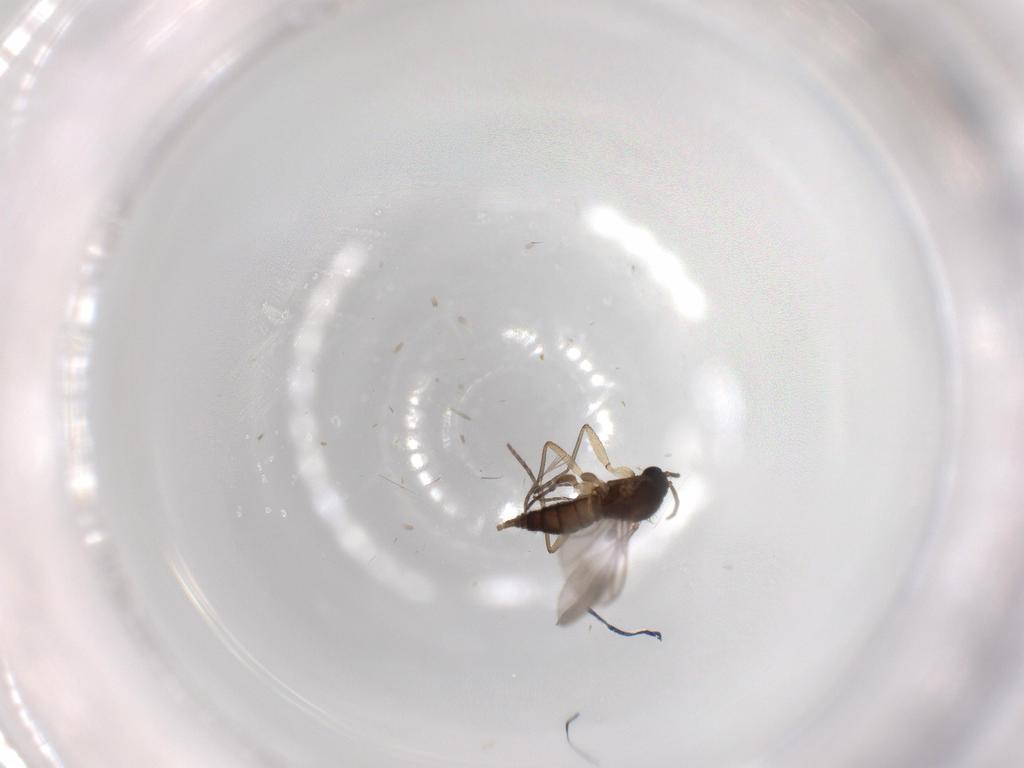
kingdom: Animalia
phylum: Arthropoda
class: Insecta
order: Diptera
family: Sciaridae
